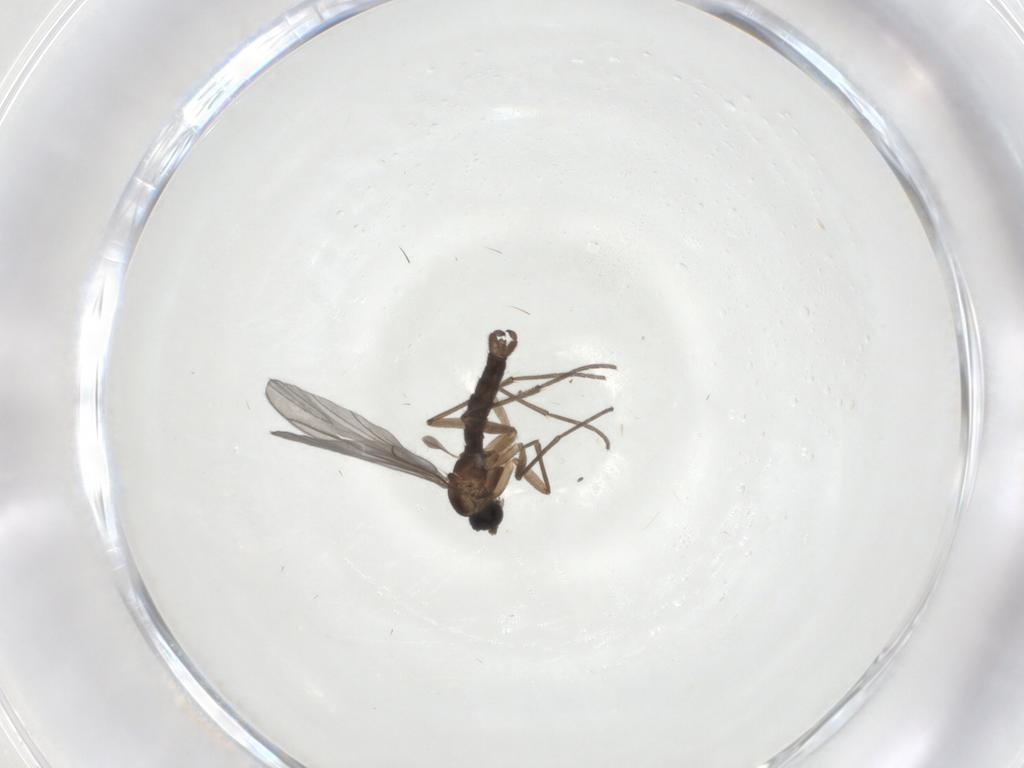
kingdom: Animalia
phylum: Arthropoda
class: Insecta
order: Diptera
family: Sciaridae
